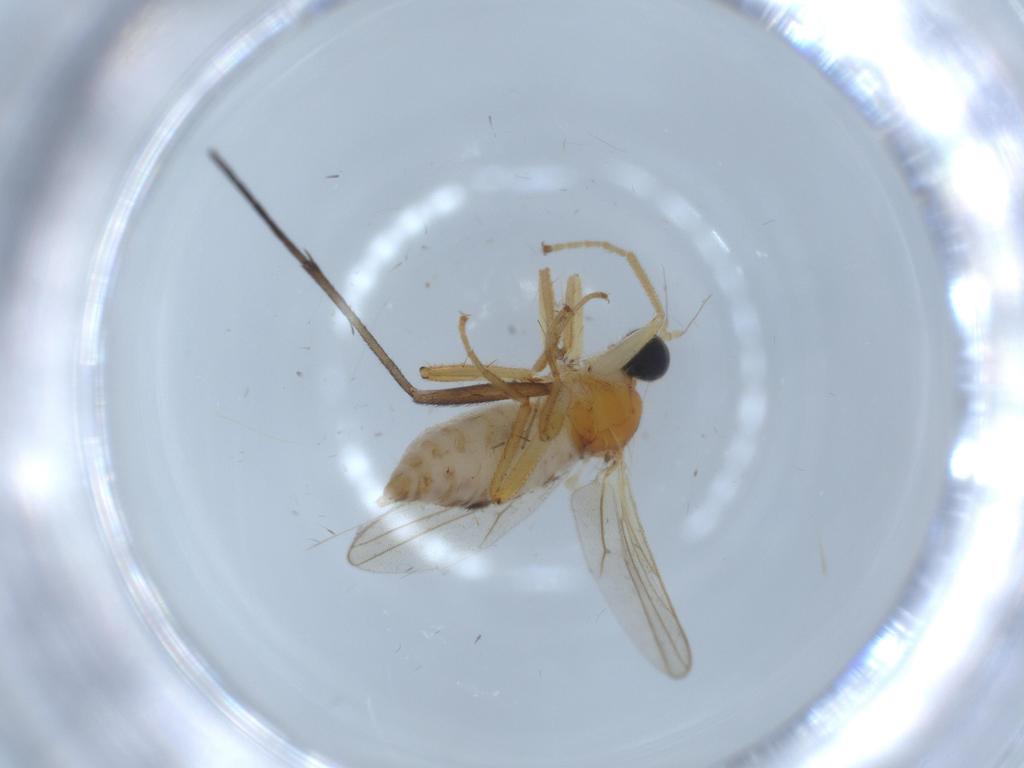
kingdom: Animalia
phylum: Arthropoda
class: Insecta
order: Diptera
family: Hybotidae
